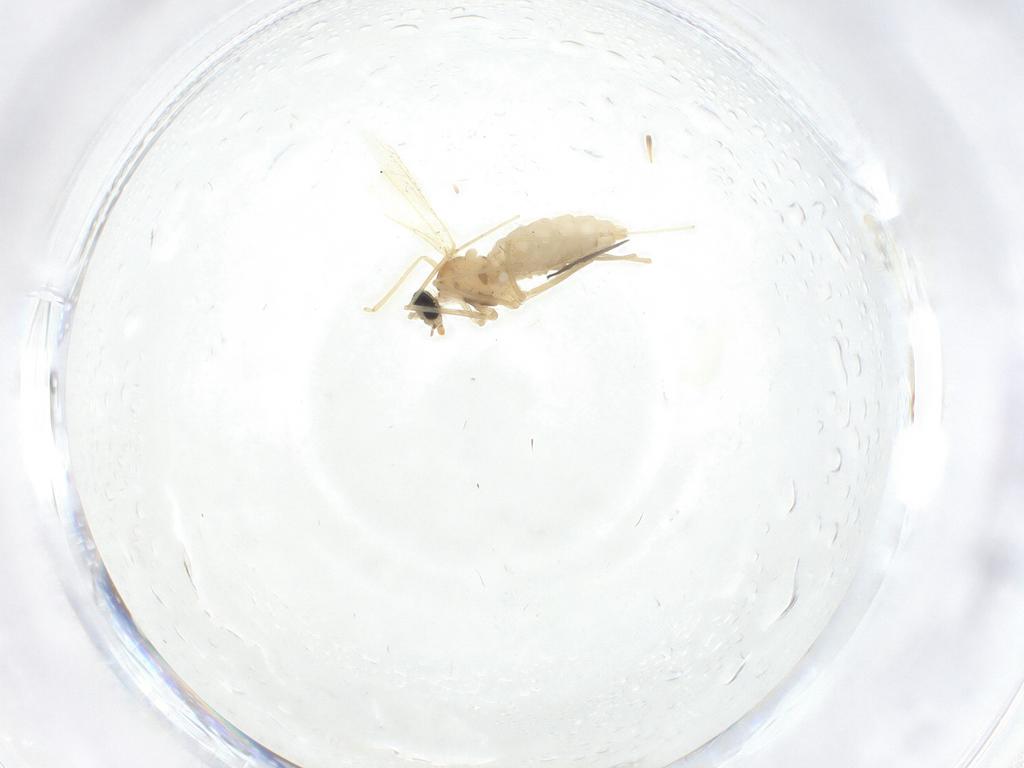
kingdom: Animalia
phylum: Arthropoda
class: Insecta
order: Diptera
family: Cecidomyiidae
